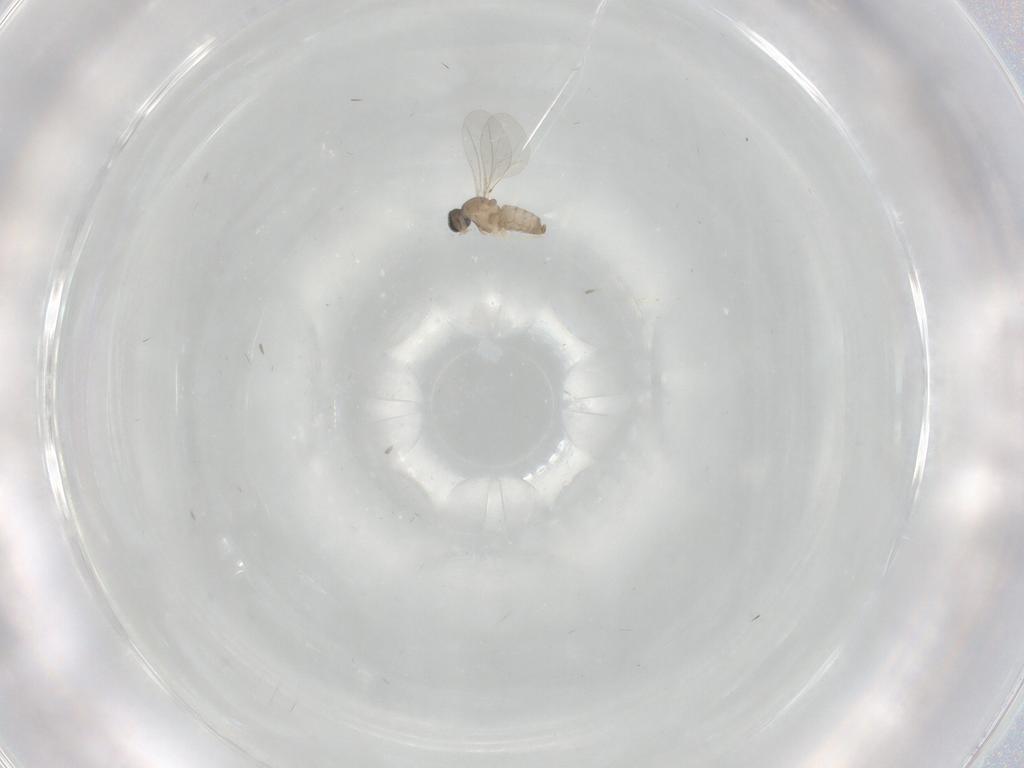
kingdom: Animalia
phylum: Arthropoda
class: Insecta
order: Diptera
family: Cecidomyiidae
